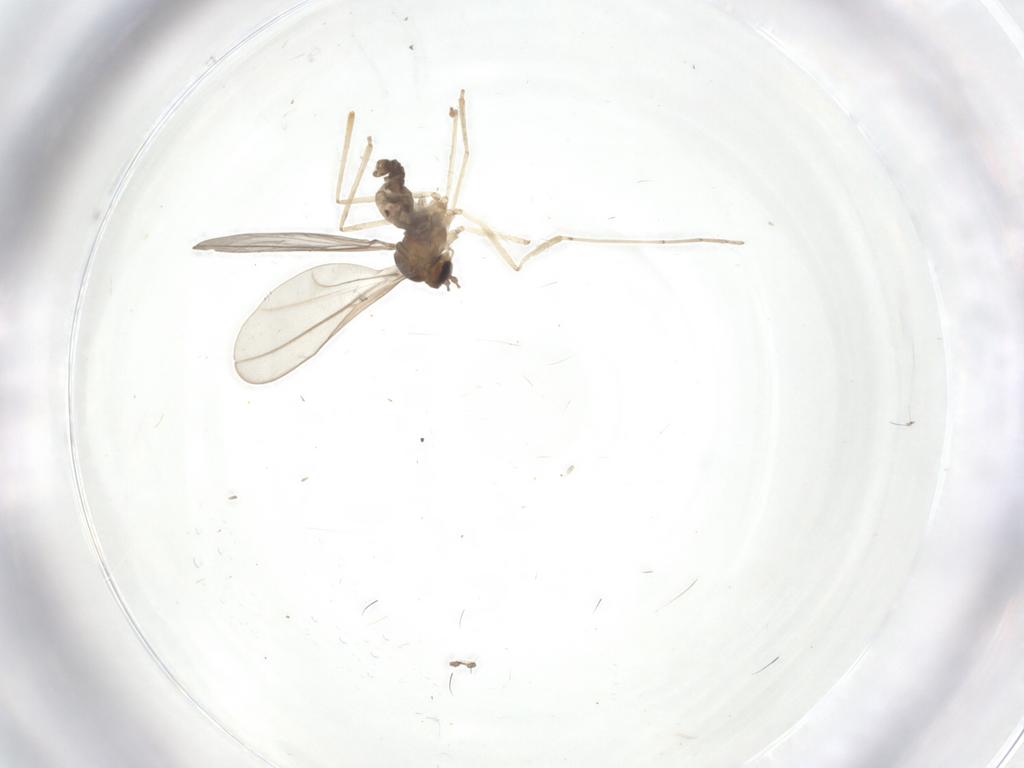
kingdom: Animalia
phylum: Arthropoda
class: Insecta
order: Diptera
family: Cecidomyiidae
